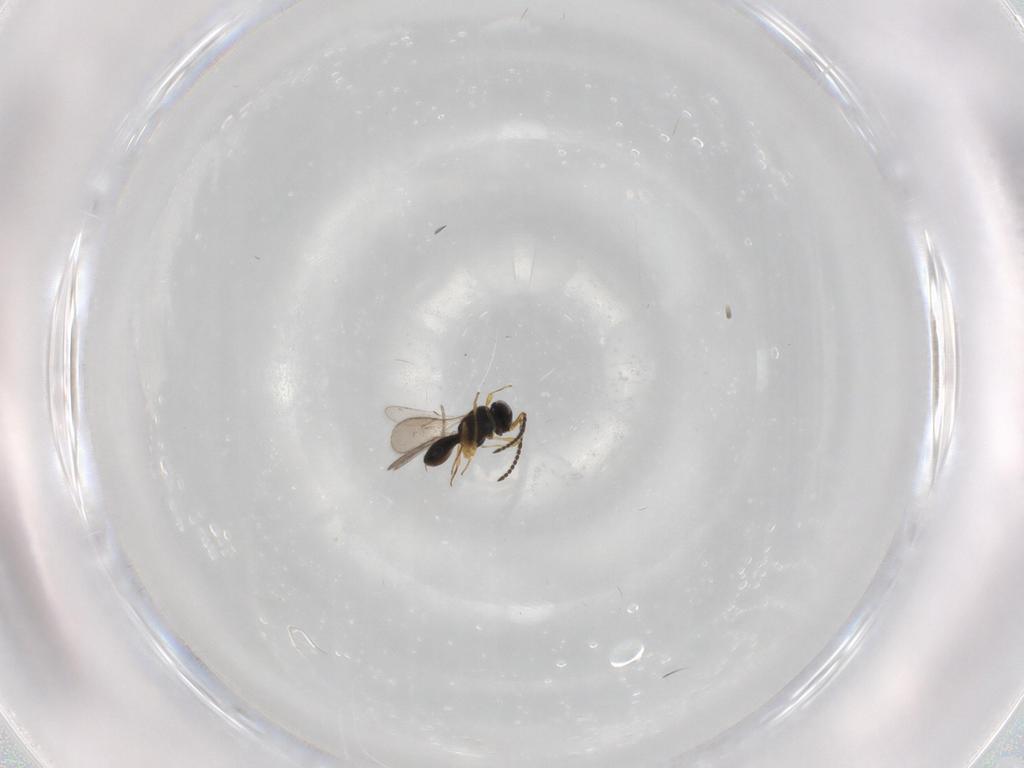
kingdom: Animalia
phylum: Arthropoda
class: Insecta
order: Hymenoptera
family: Scelionidae
